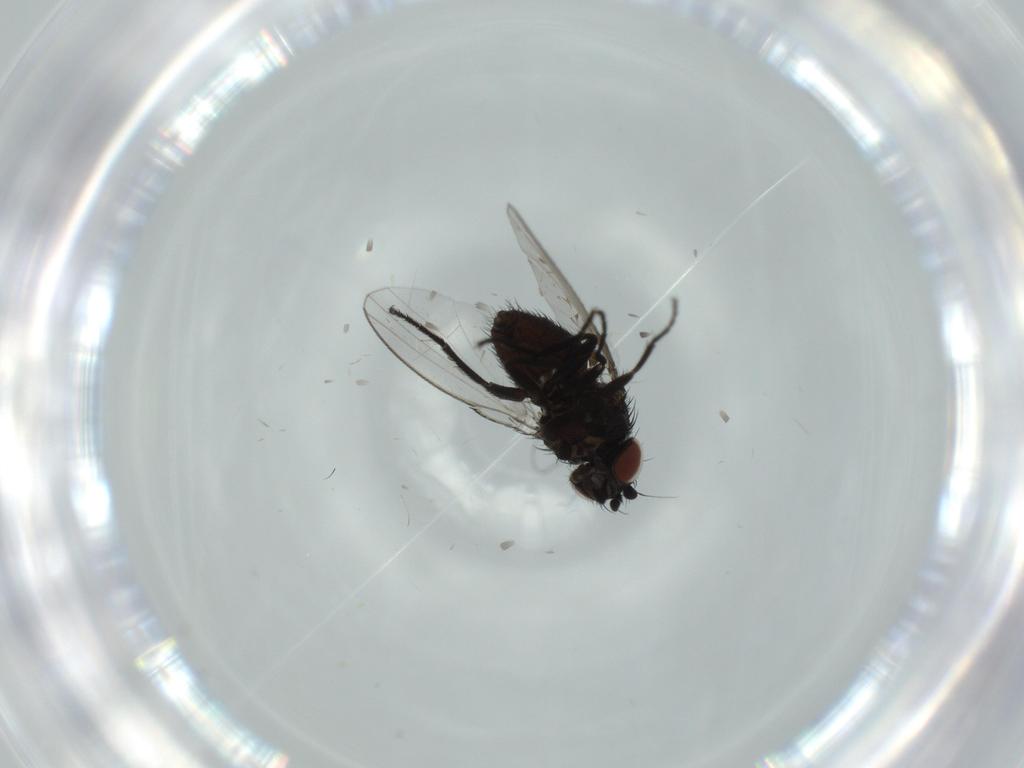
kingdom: Animalia
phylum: Arthropoda
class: Insecta
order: Diptera
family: Milichiidae
